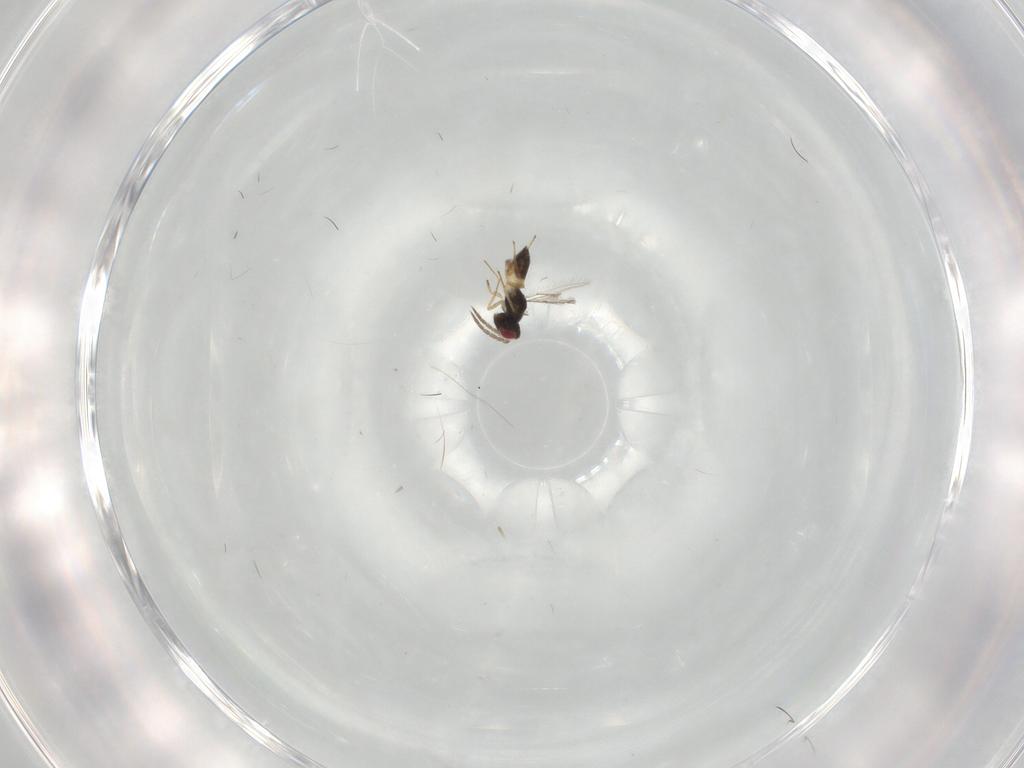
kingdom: Animalia
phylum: Arthropoda
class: Insecta
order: Hymenoptera
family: Eulophidae
